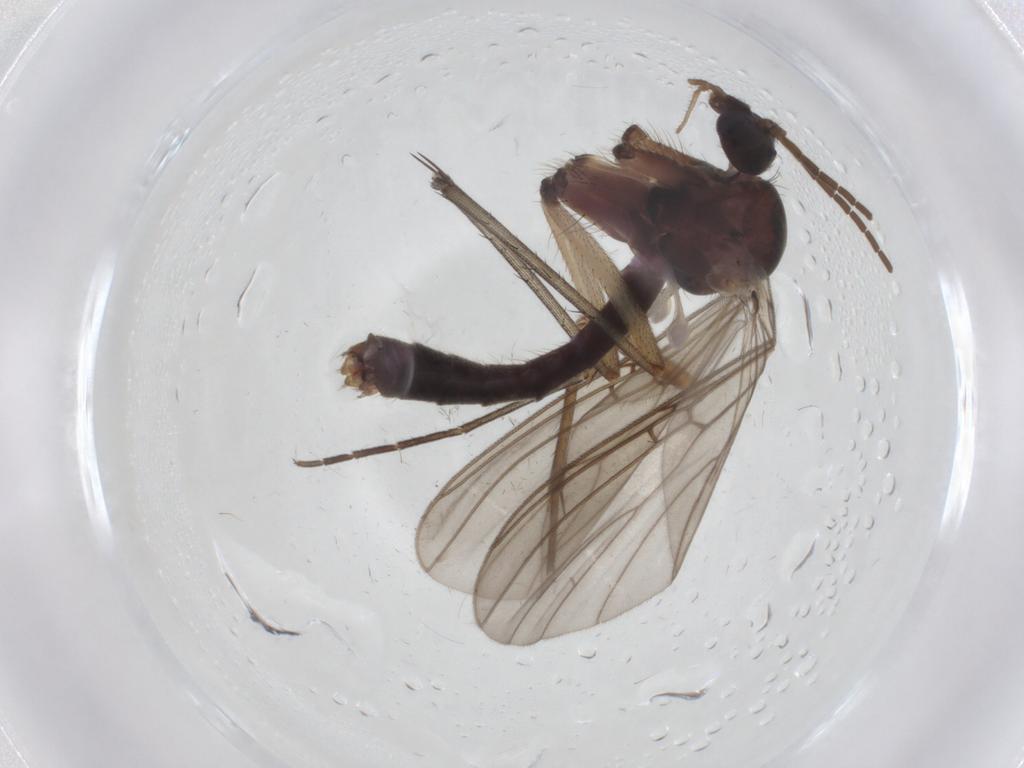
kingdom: Animalia
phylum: Arthropoda
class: Insecta
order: Diptera
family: Mycetophilidae
